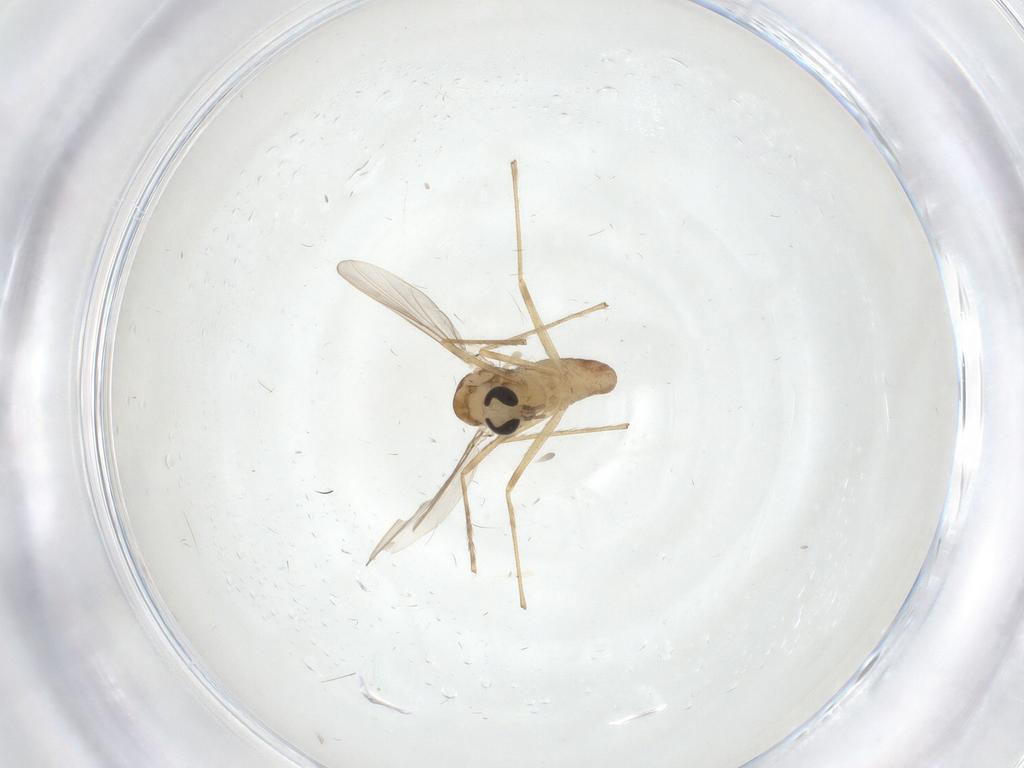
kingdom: Animalia
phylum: Arthropoda
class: Insecta
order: Diptera
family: Chironomidae
